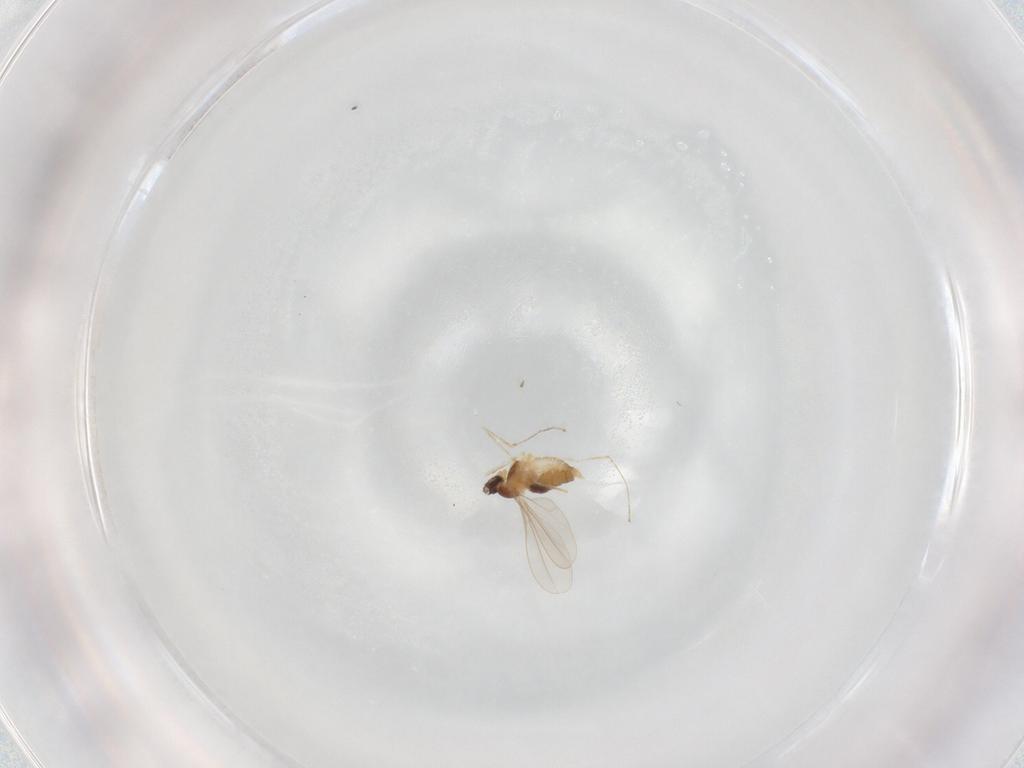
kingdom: Animalia
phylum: Arthropoda
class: Insecta
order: Diptera
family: Cecidomyiidae
